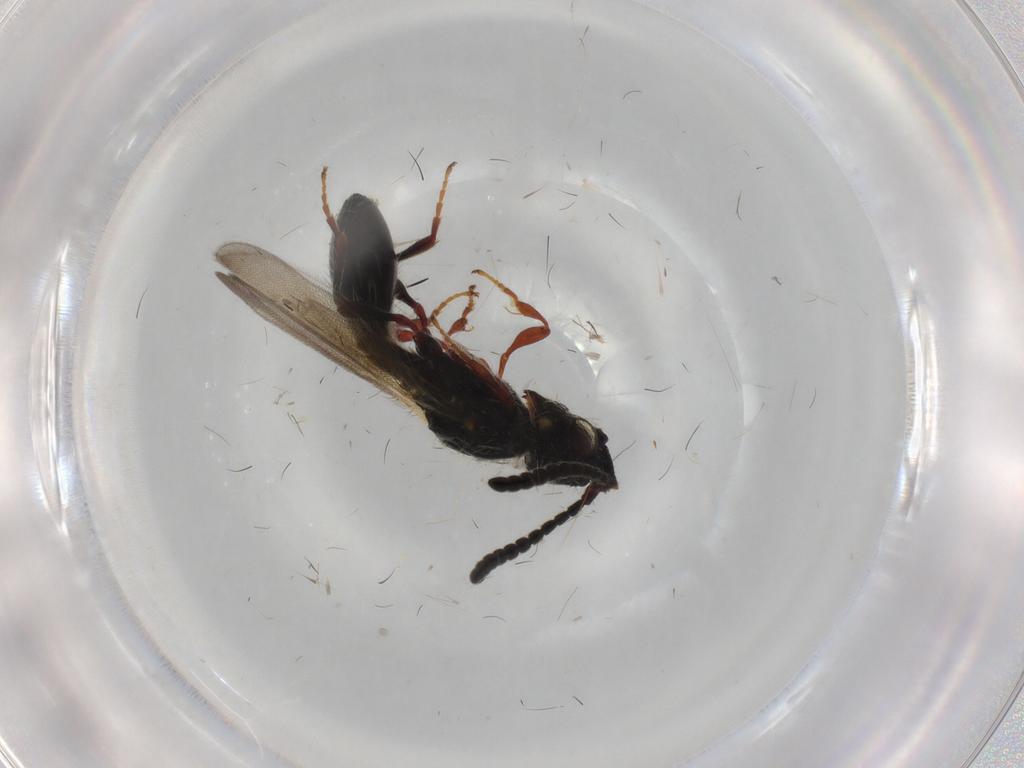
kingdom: Animalia
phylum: Arthropoda
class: Insecta
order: Hymenoptera
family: Diapriidae
